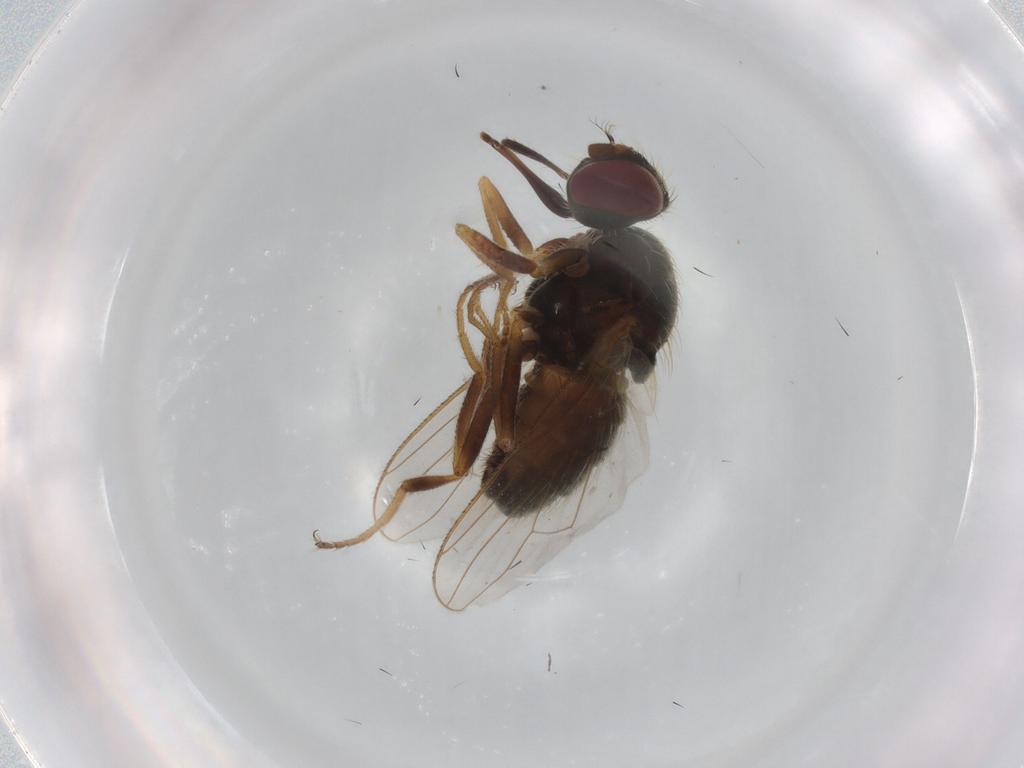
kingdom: Animalia
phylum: Arthropoda
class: Insecta
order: Diptera
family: Muscidae
